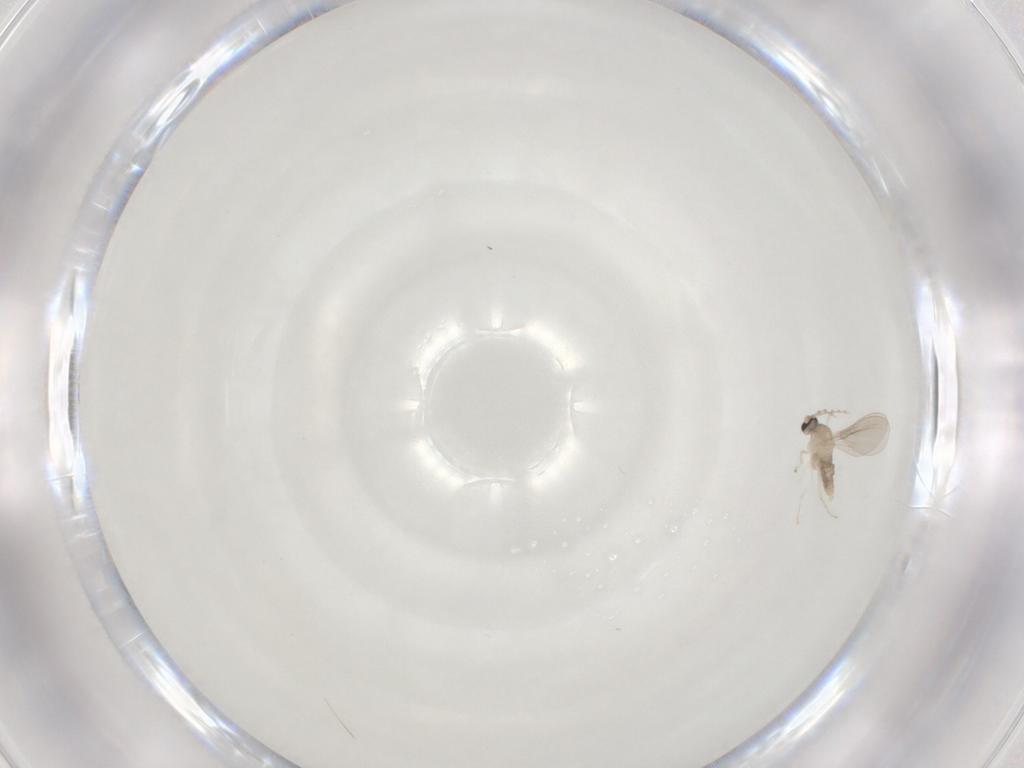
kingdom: Animalia
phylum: Arthropoda
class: Insecta
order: Diptera
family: Cecidomyiidae
